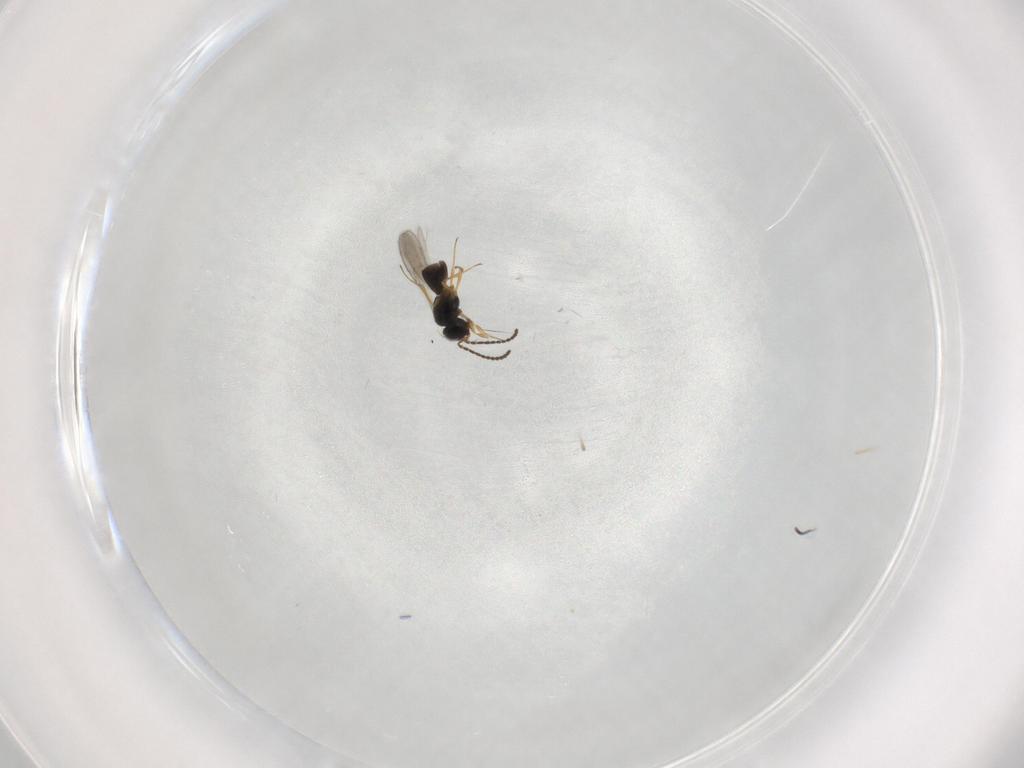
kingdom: Animalia
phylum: Arthropoda
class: Insecta
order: Hymenoptera
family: Scelionidae
